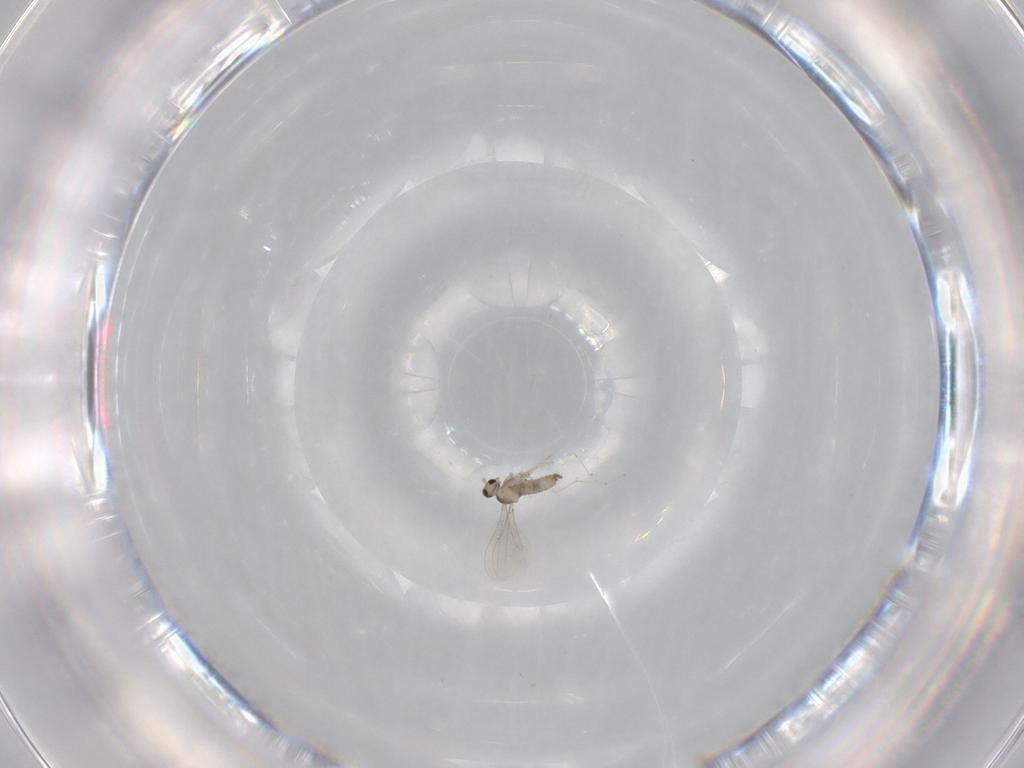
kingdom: Animalia
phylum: Arthropoda
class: Insecta
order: Diptera
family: Cecidomyiidae
